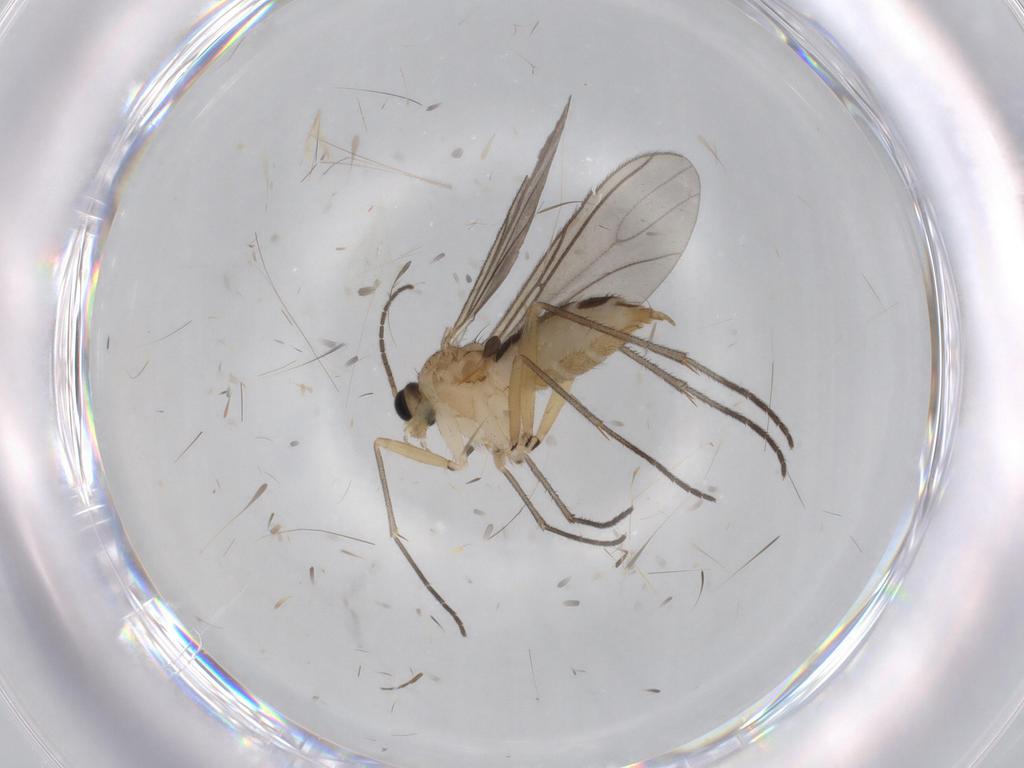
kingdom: Animalia
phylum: Arthropoda
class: Insecta
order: Diptera
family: Sciaridae
